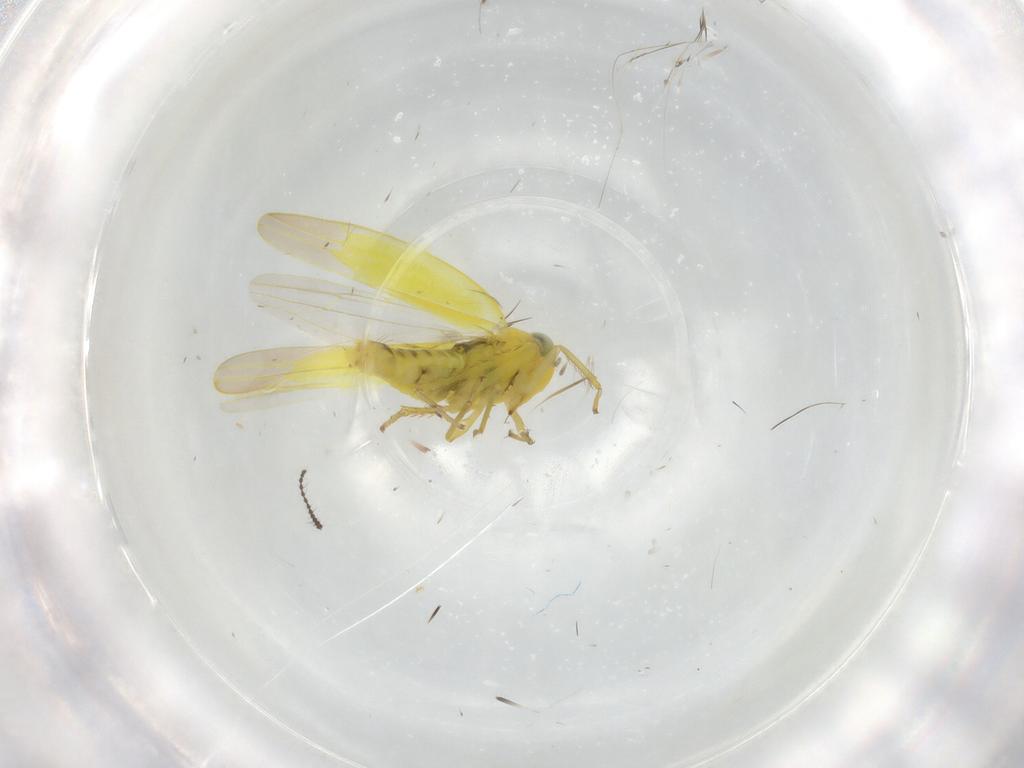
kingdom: Animalia
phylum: Arthropoda
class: Insecta
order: Hemiptera
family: Cicadellidae
